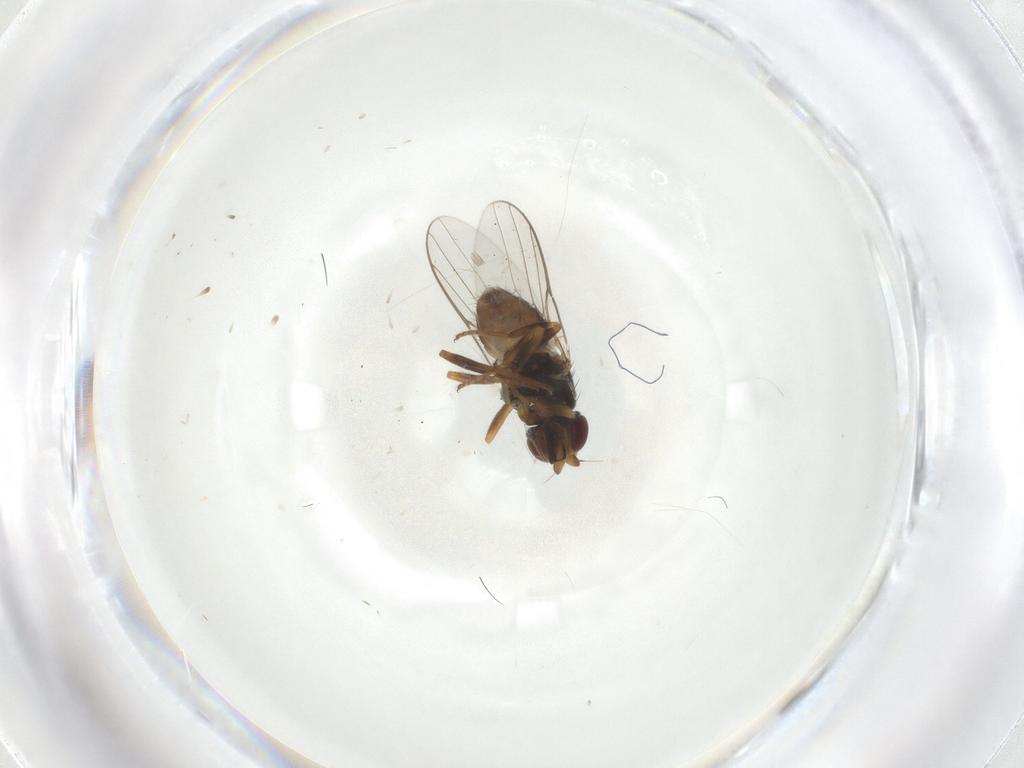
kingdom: Animalia
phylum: Arthropoda
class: Insecta
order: Diptera
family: Chloropidae
